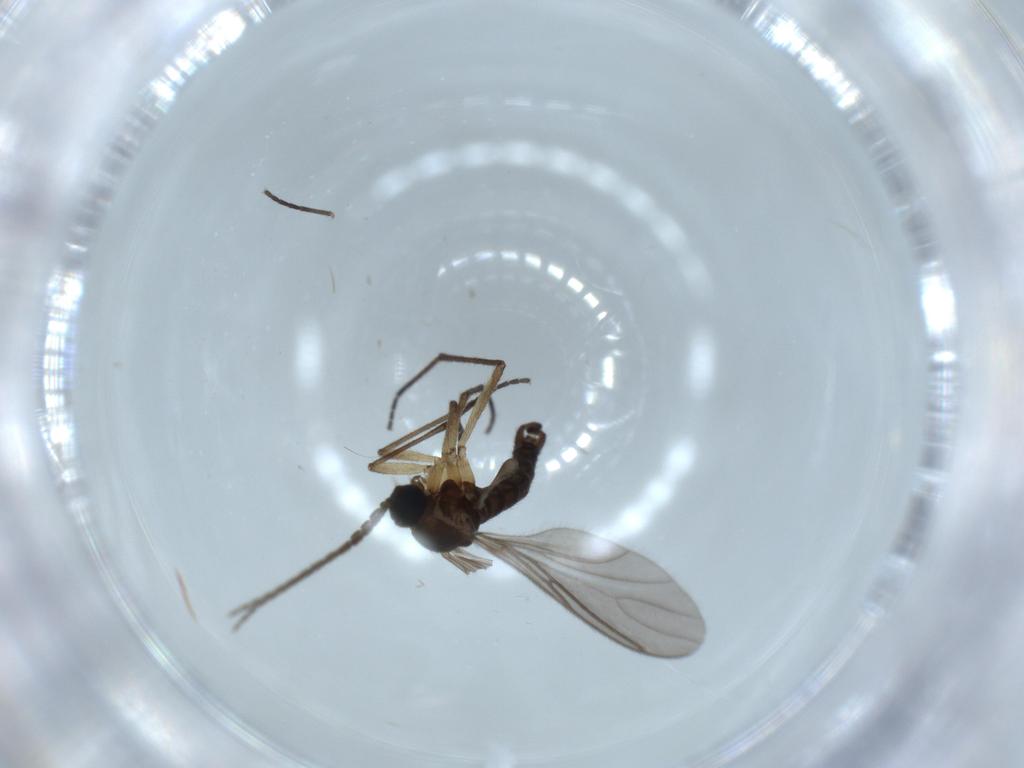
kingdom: Animalia
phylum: Arthropoda
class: Insecta
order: Diptera
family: Sciaridae
